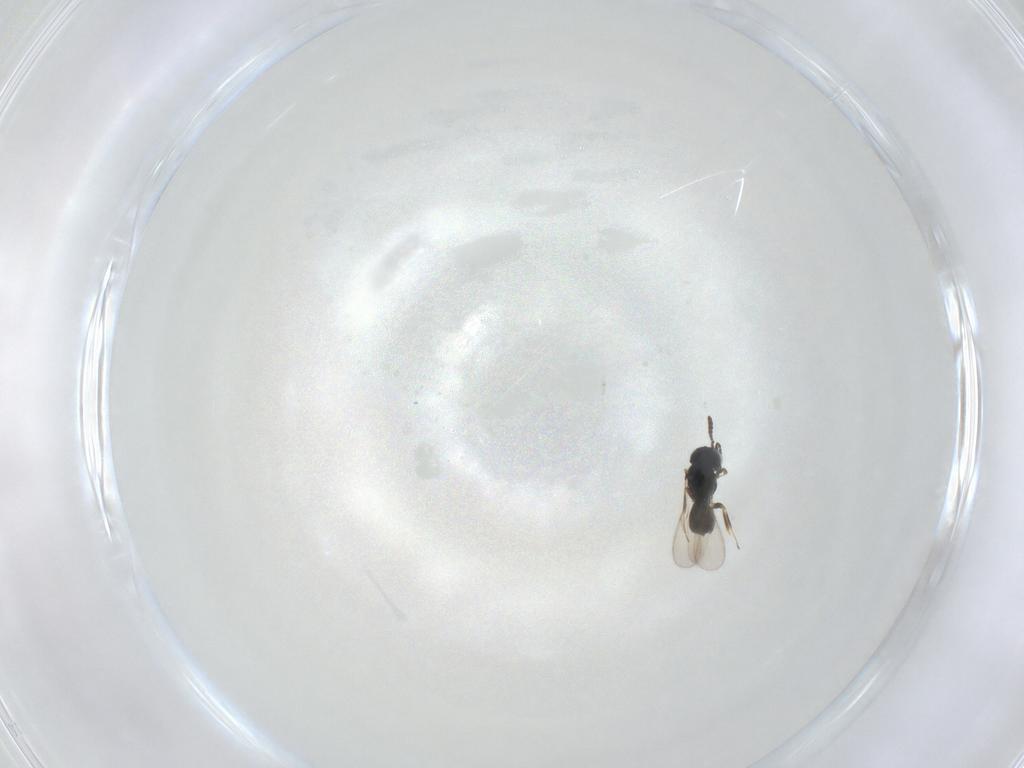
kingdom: Animalia
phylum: Arthropoda
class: Insecta
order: Hymenoptera
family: Scelionidae
